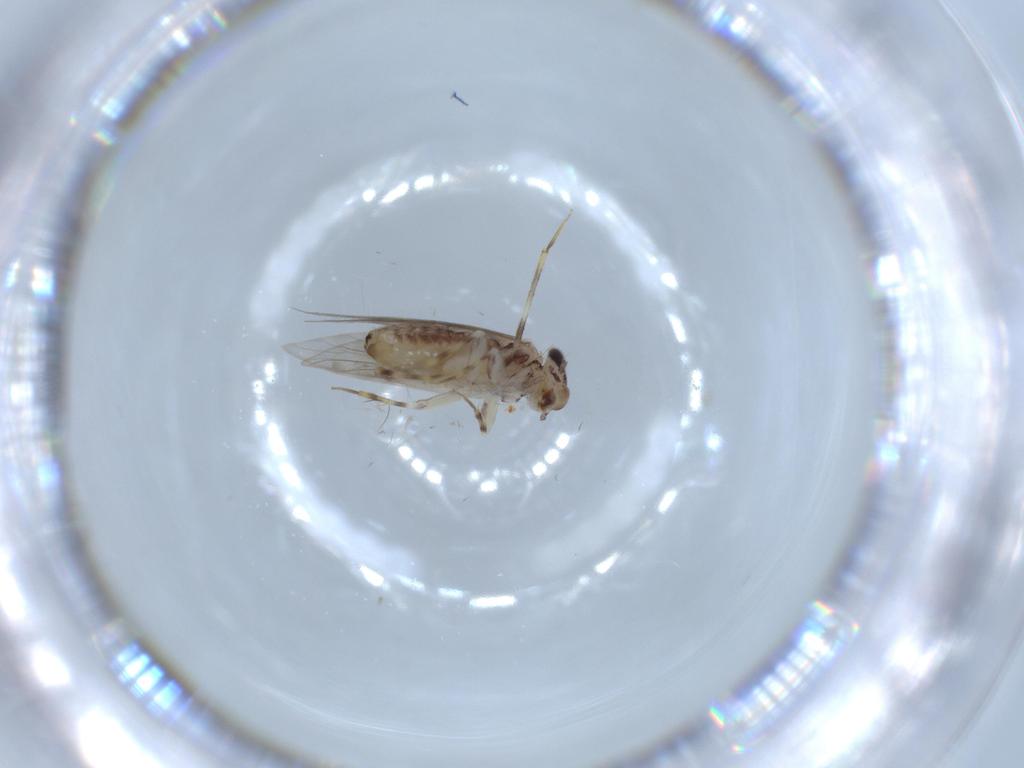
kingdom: Animalia
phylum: Arthropoda
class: Insecta
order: Psocodea
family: Lepidopsocidae
